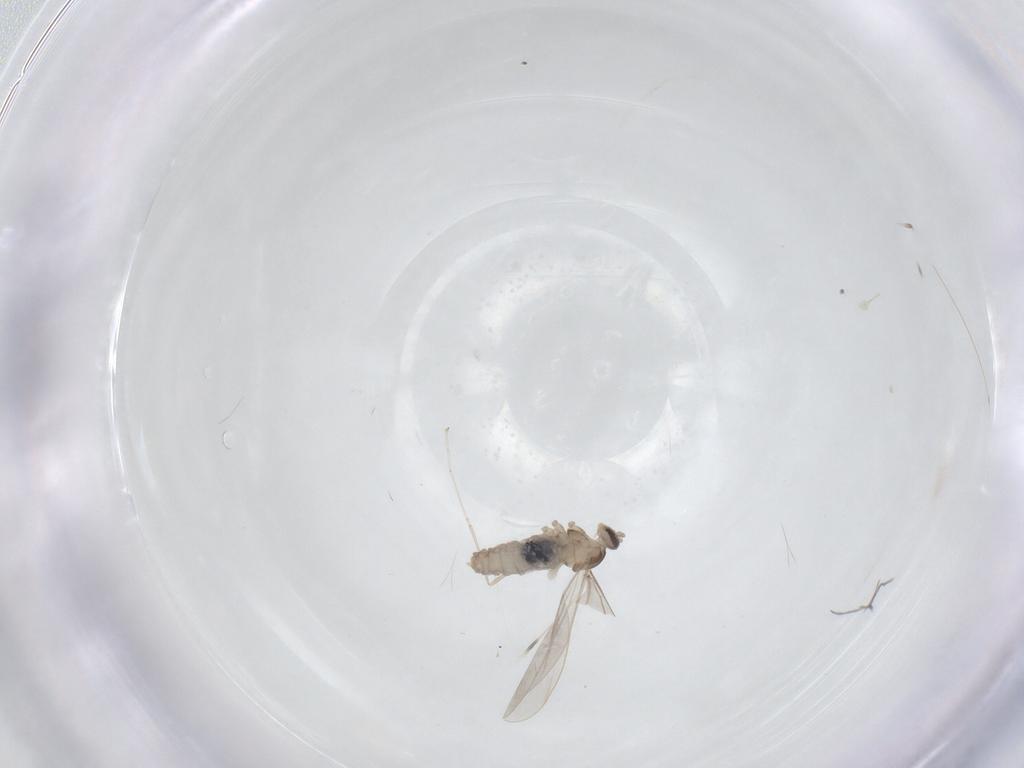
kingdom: Animalia
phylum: Arthropoda
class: Insecta
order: Diptera
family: Cecidomyiidae
